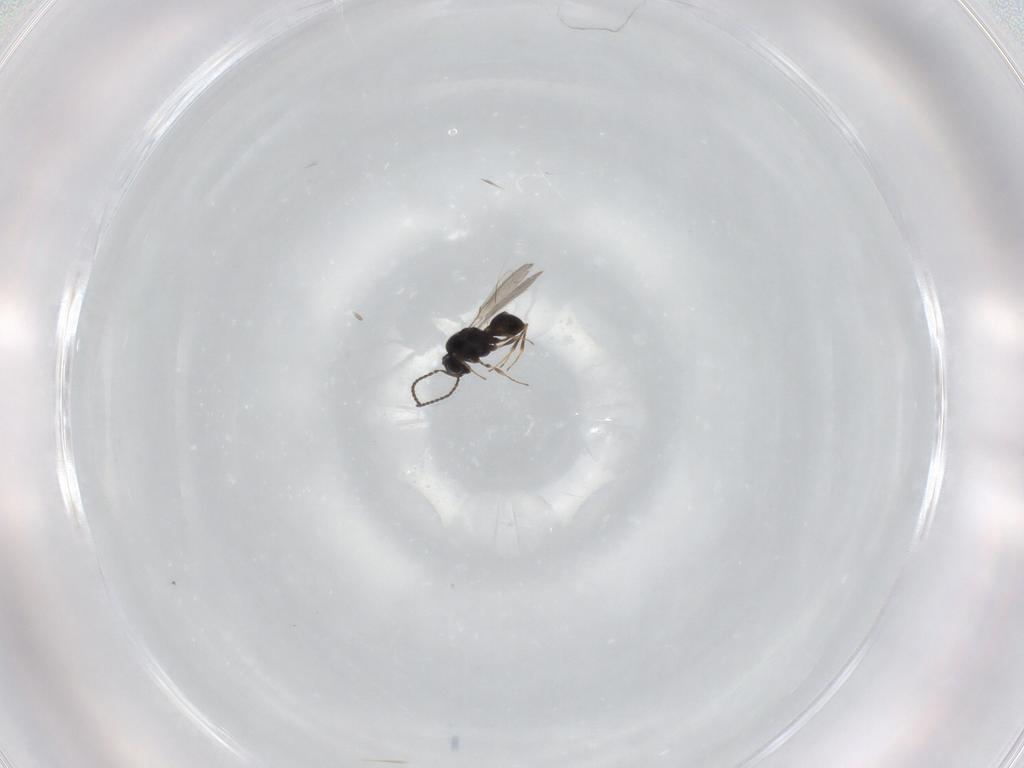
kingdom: Animalia
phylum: Arthropoda
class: Insecta
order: Hymenoptera
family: Scelionidae
